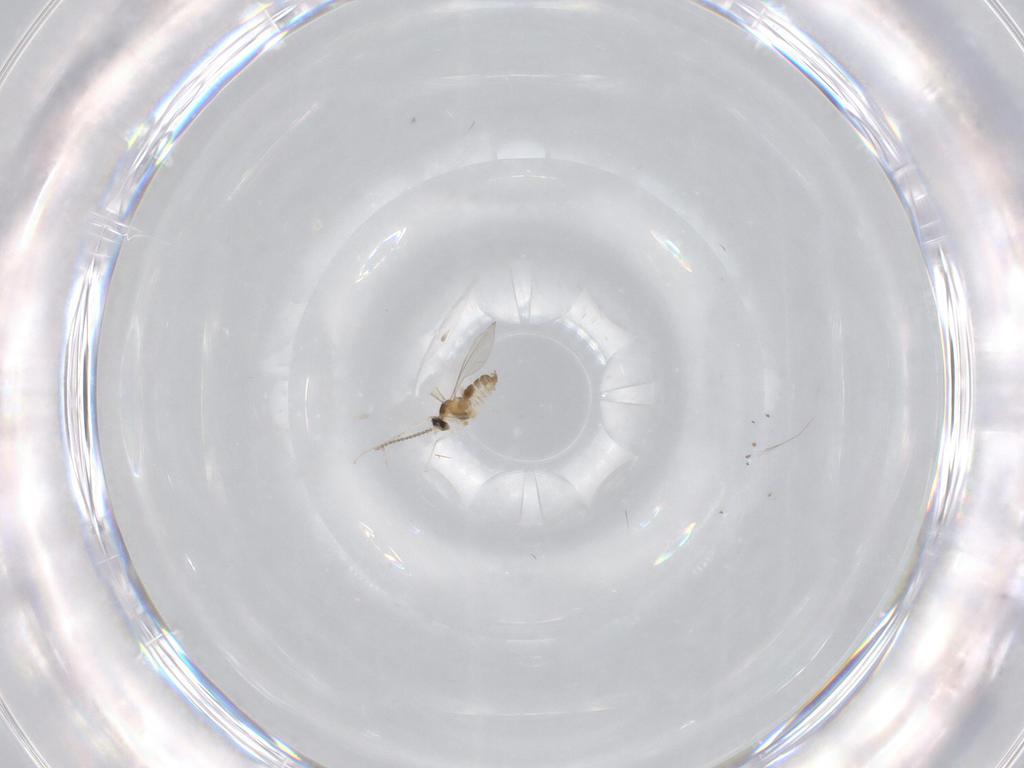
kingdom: Animalia
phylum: Arthropoda
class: Insecta
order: Diptera
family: Cecidomyiidae
